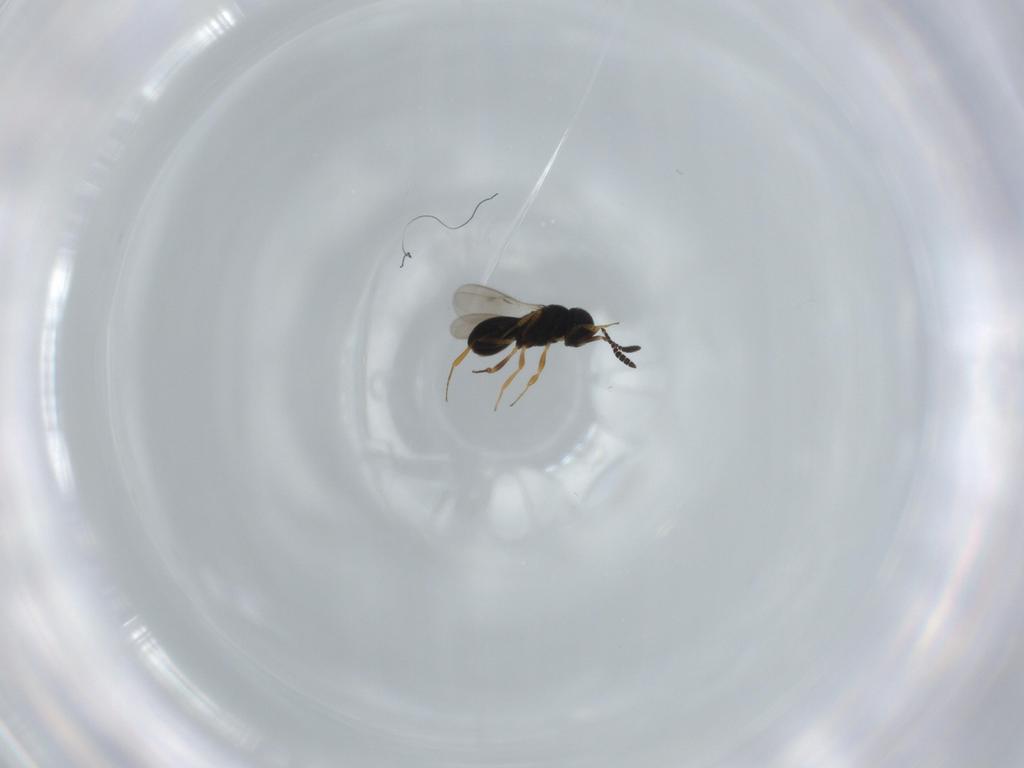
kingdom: Animalia
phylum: Arthropoda
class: Insecta
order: Hymenoptera
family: Scelionidae
